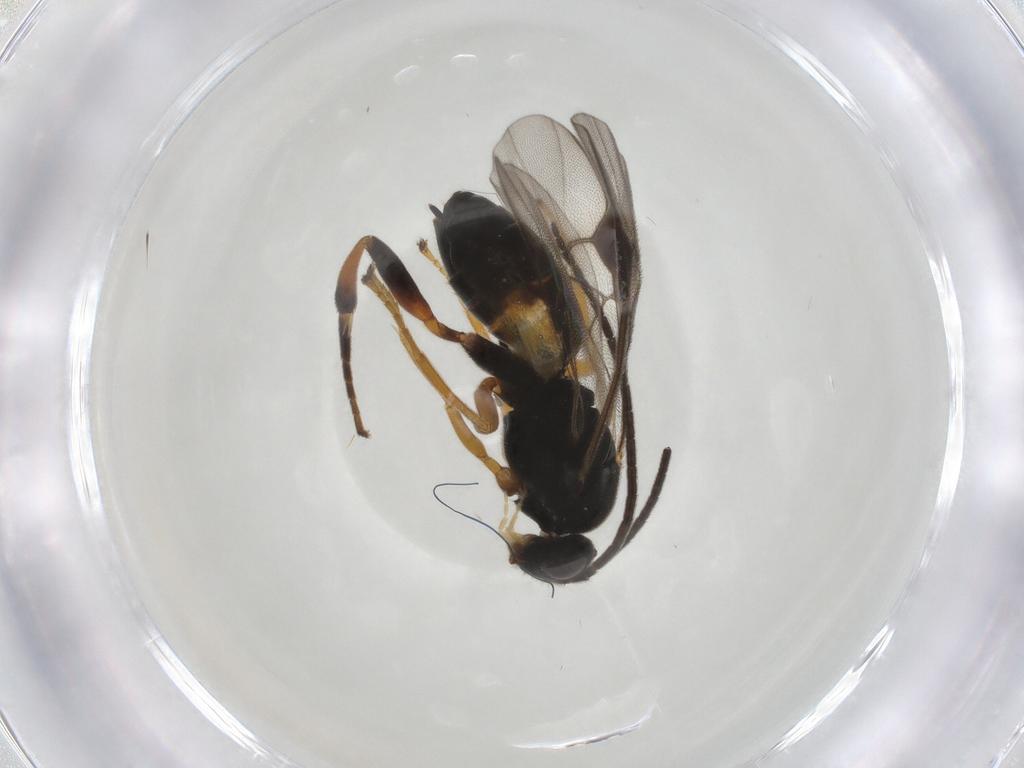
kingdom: Animalia
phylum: Arthropoda
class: Insecta
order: Hymenoptera
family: Braconidae
